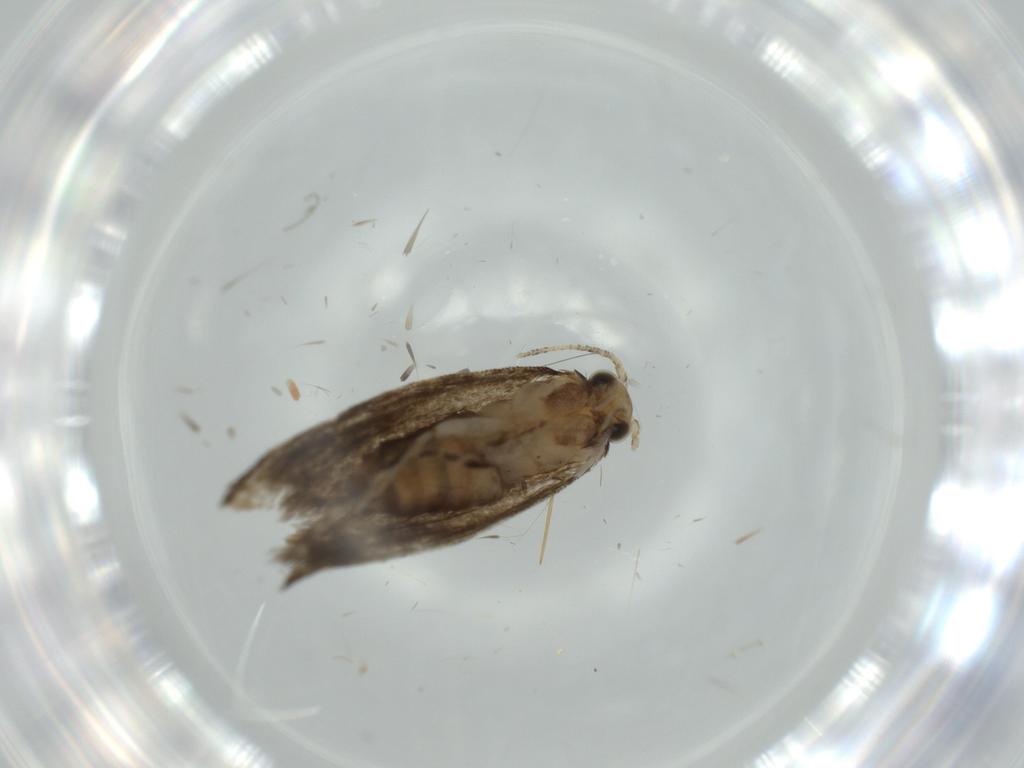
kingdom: Animalia
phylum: Arthropoda
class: Insecta
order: Lepidoptera
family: Tineidae
